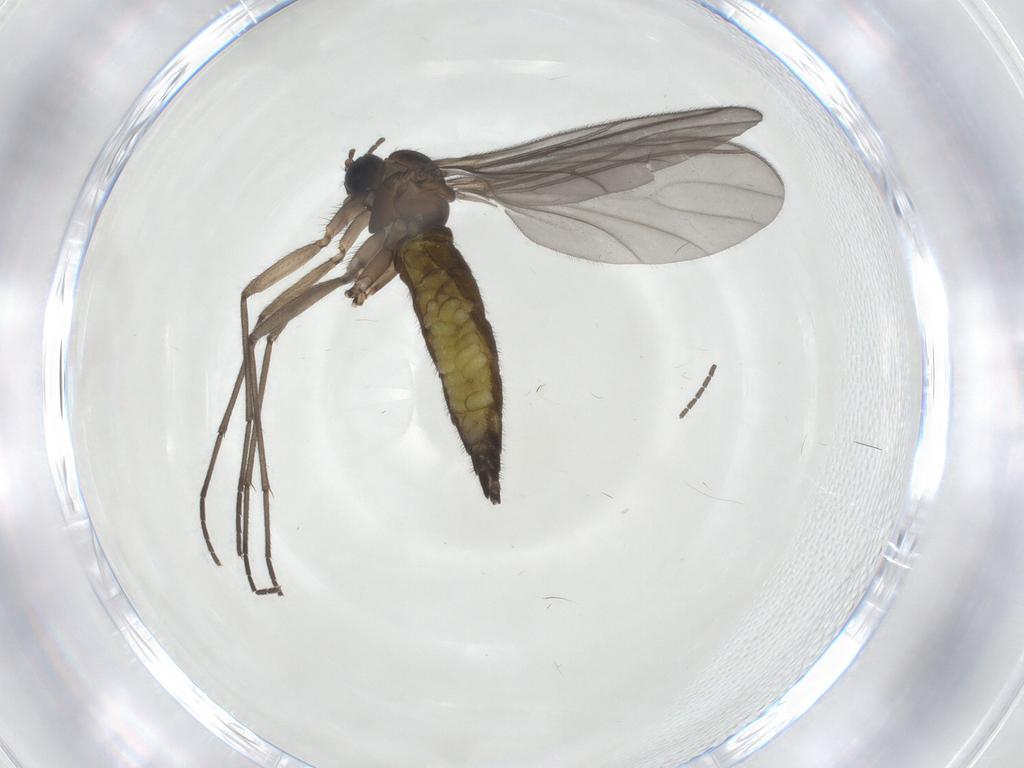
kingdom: Animalia
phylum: Arthropoda
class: Insecta
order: Diptera
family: Sciaridae
